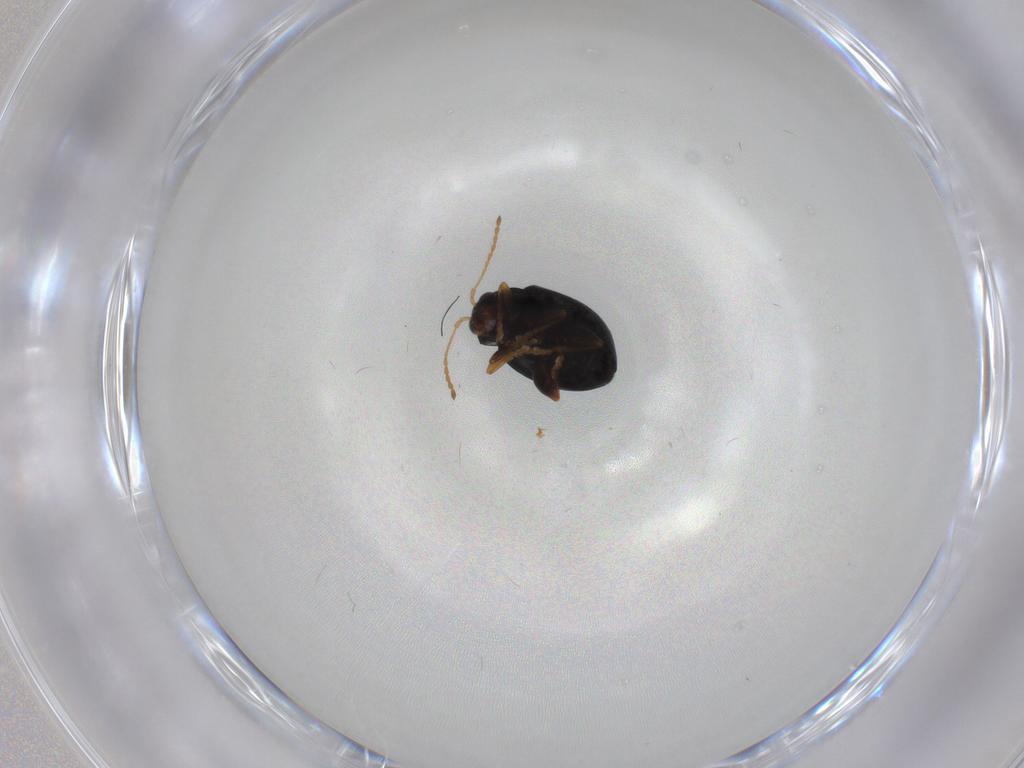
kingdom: Animalia
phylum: Arthropoda
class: Insecta
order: Coleoptera
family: Chrysomelidae
